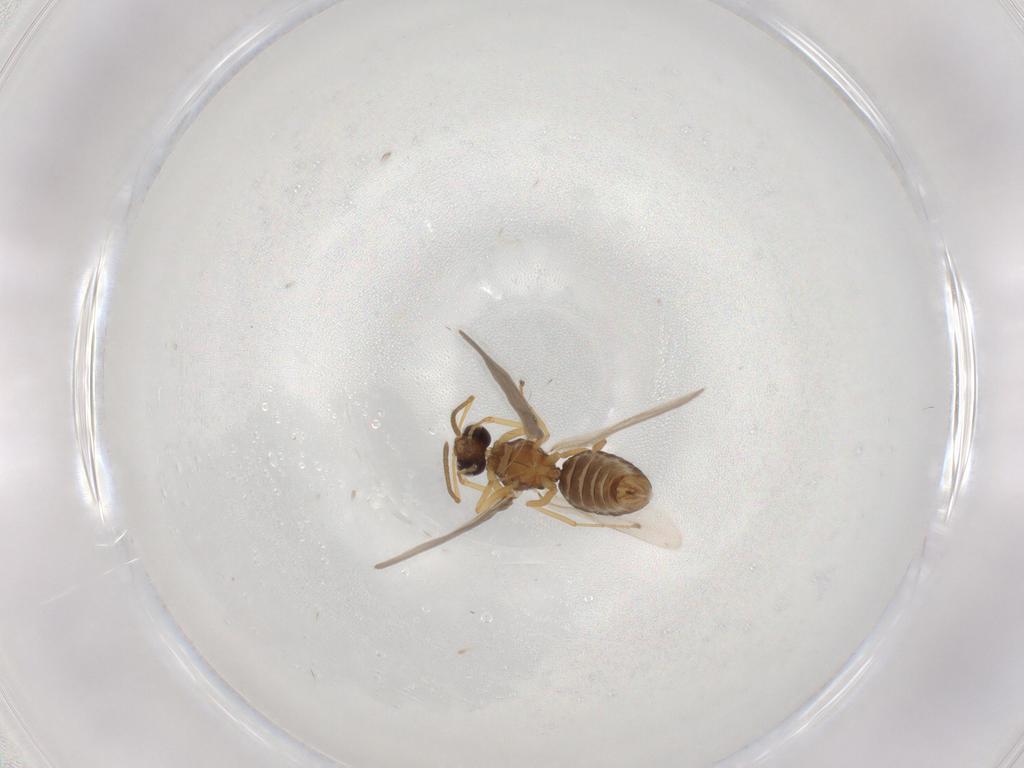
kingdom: Animalia
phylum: Arthropoda
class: Insecta
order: Hymenoptera
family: Formicidae
